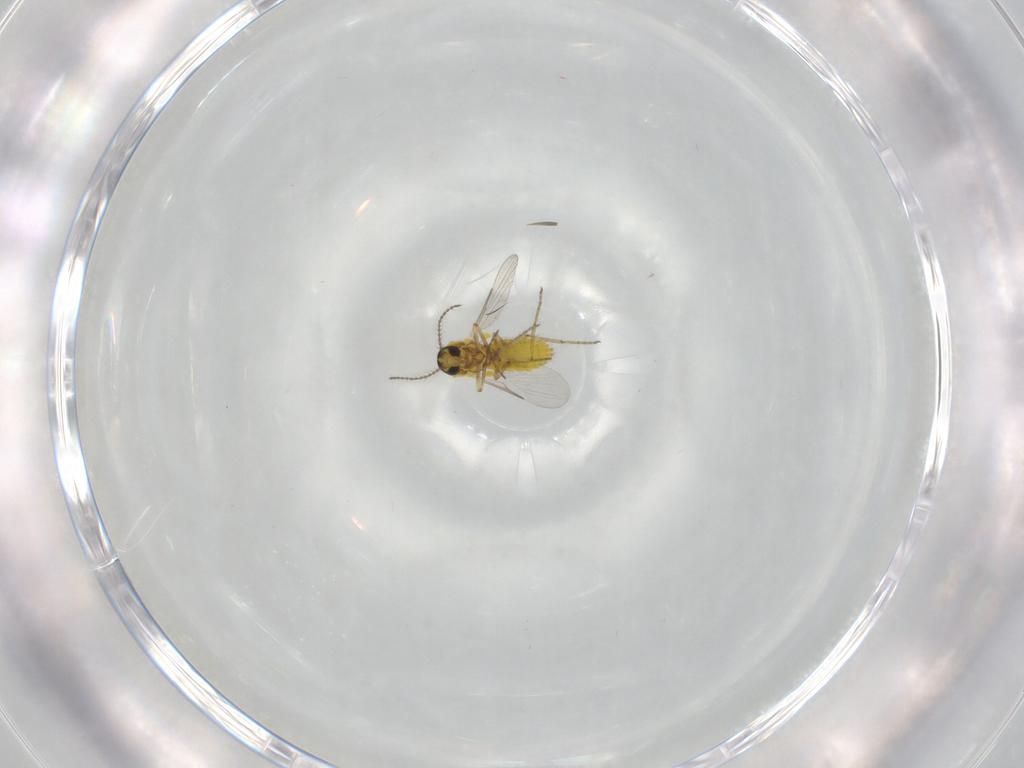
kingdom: Animalia
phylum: Arthropoda
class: Insecta
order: Diptera
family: Ceratopogonidae
